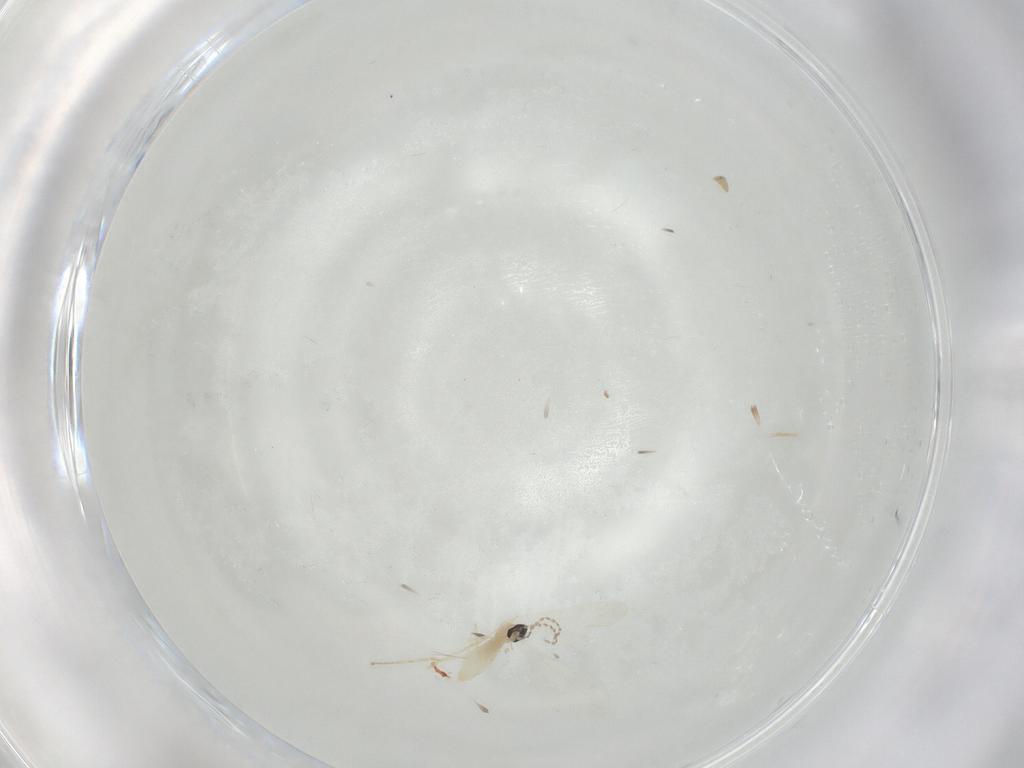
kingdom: Animalia
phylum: Arthropoda
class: Insecta
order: Diptera
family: Cecidomyiidae
